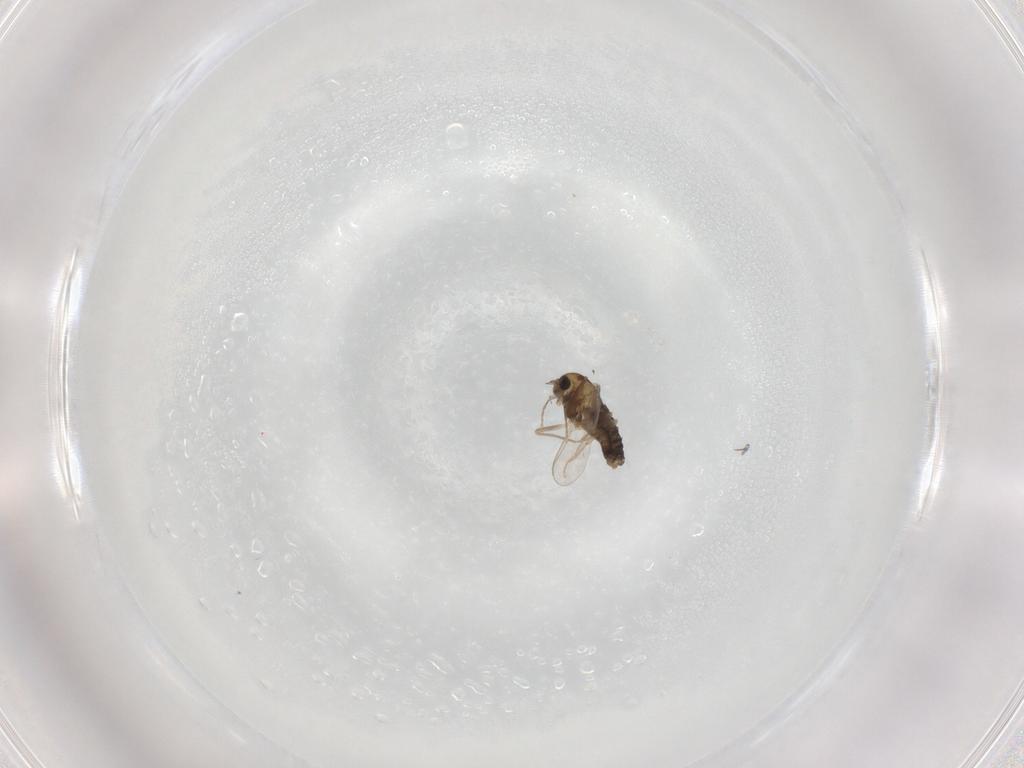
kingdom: Animalia
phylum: Arthropoda
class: Insecta
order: Diptera
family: Chironomidae
